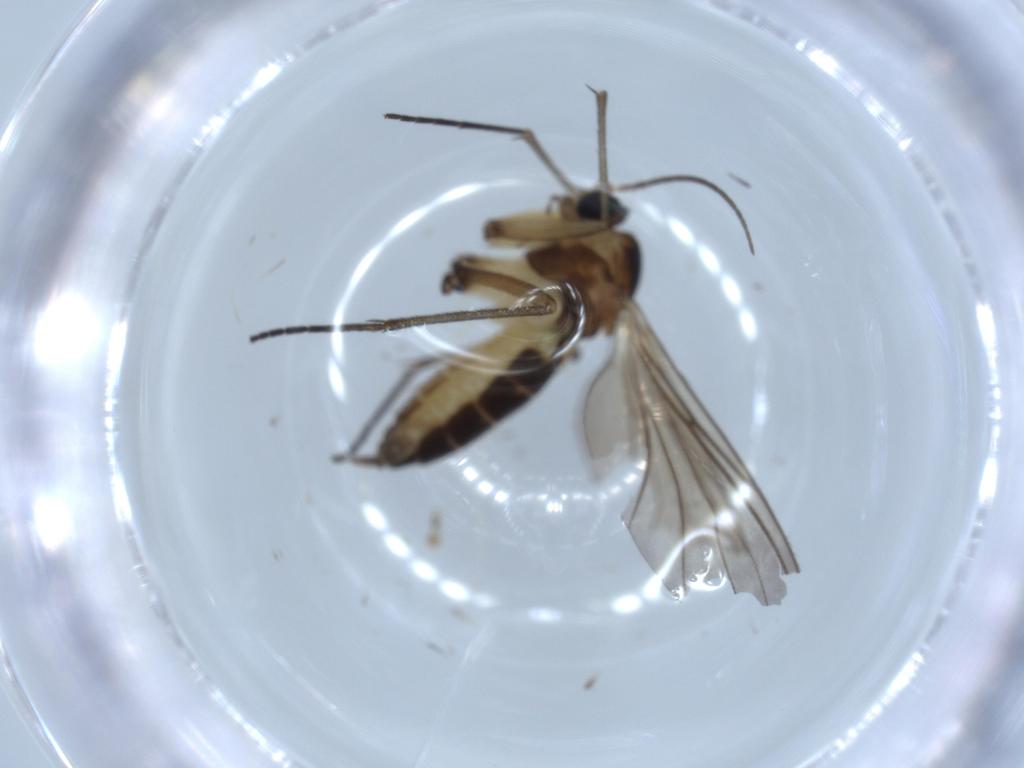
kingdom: Animalia
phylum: Arthropoda
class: Insecta
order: Diptera
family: Sciaridae
